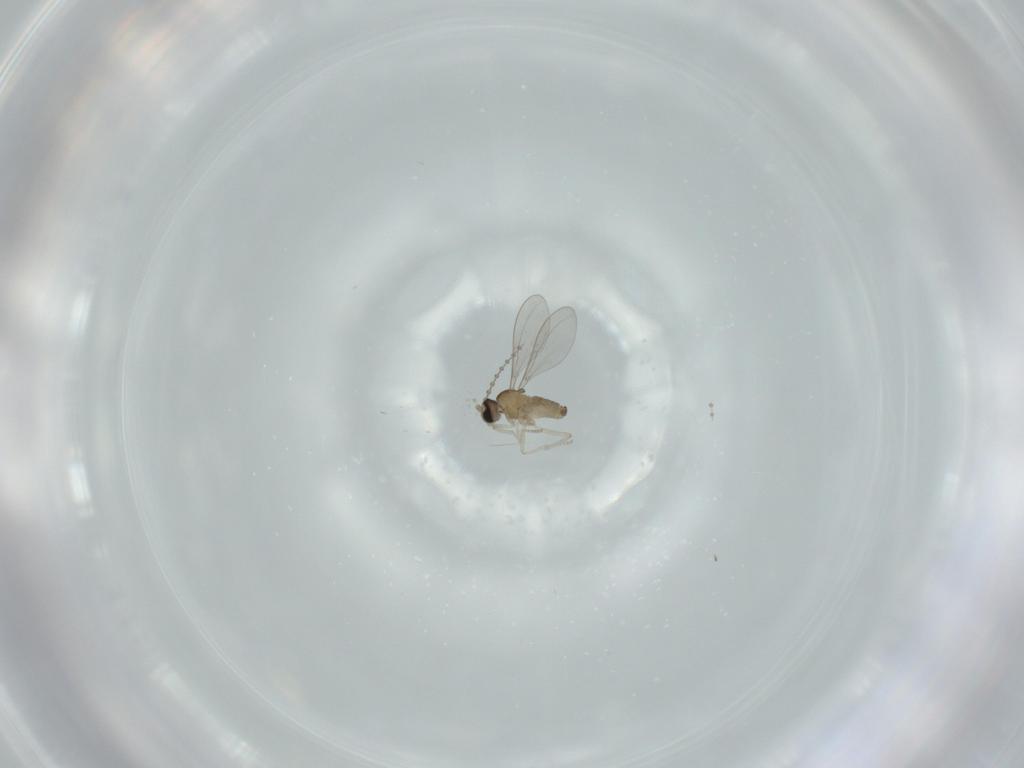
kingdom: Animalia
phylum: Arthropoda
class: Insecta
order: Diptera
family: Cecidomyiidae
